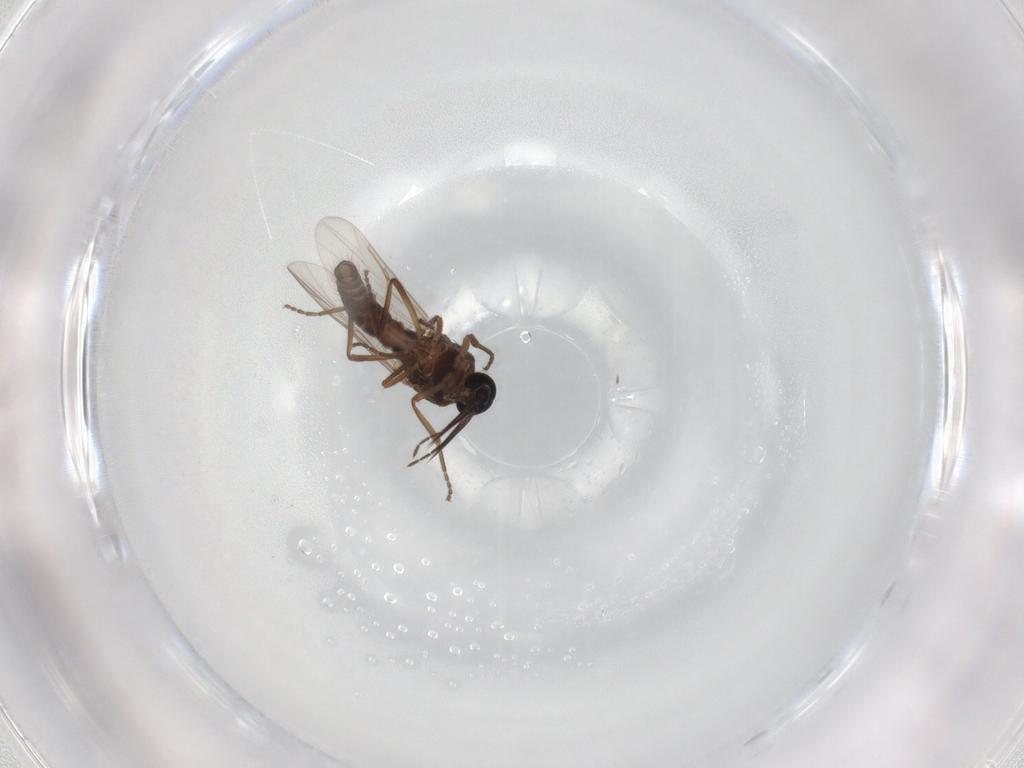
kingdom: Animalia
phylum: Arthropoda
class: Insecta
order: Diptera
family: Ceratopogonidae
